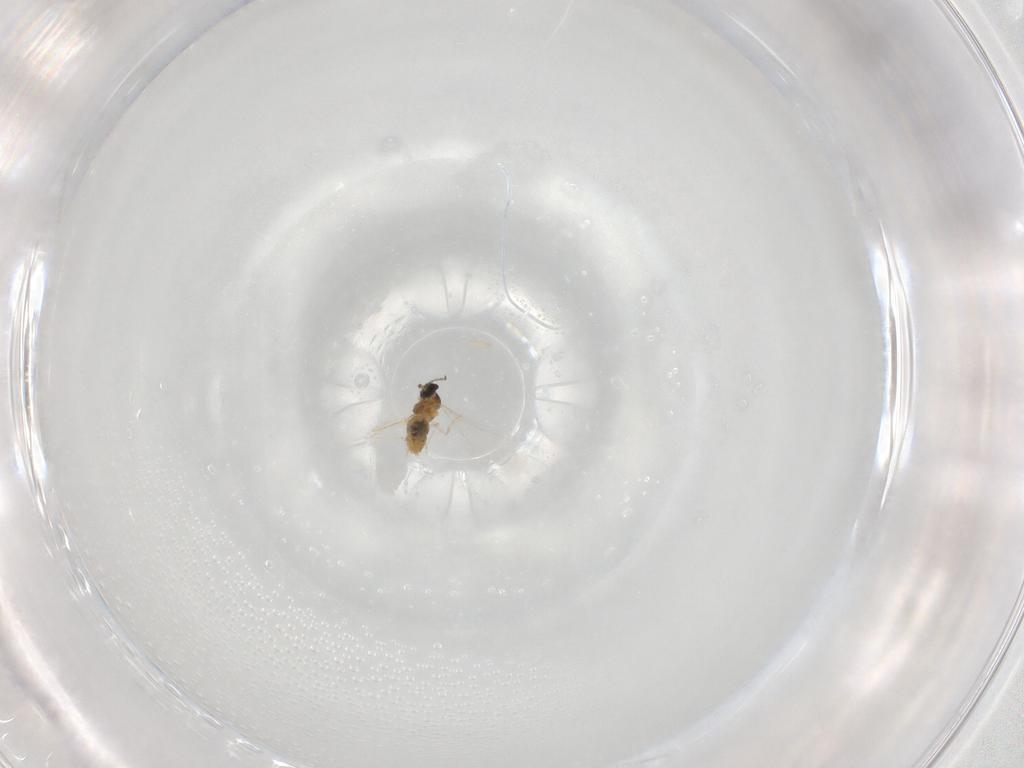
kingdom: Animalia
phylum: Arthropoda
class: Insecta
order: Diptera
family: Cecidomyiidae
